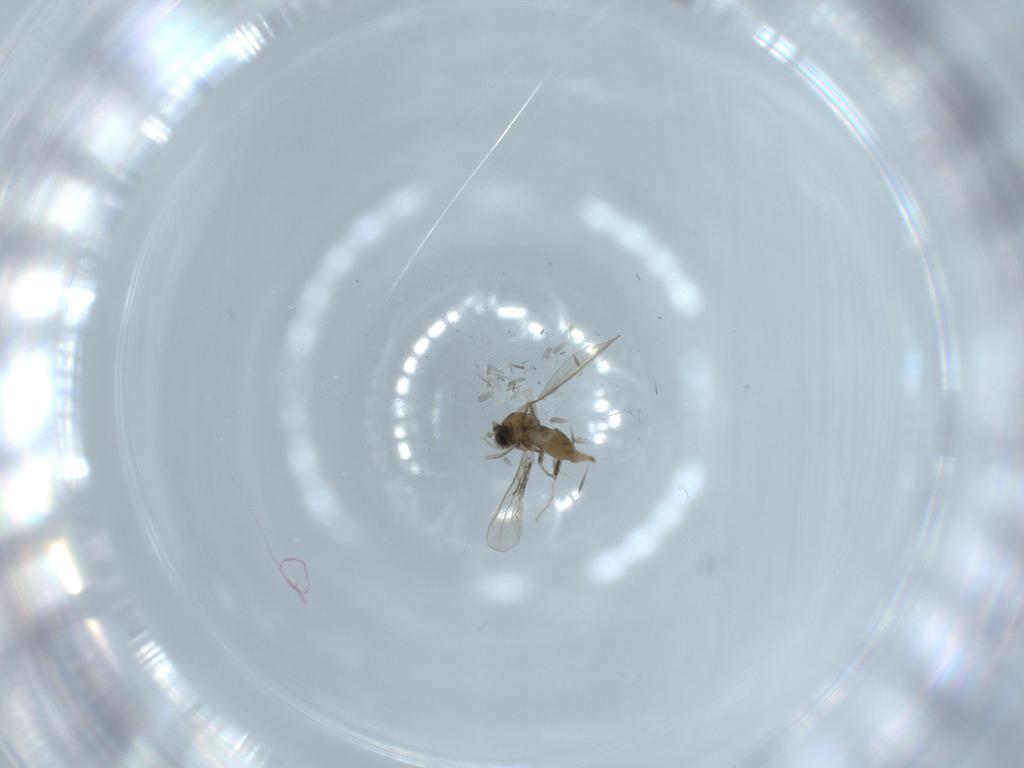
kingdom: Animalia
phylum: Arthropoda
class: Insecta
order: Diptera
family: Cecidomyiidae
